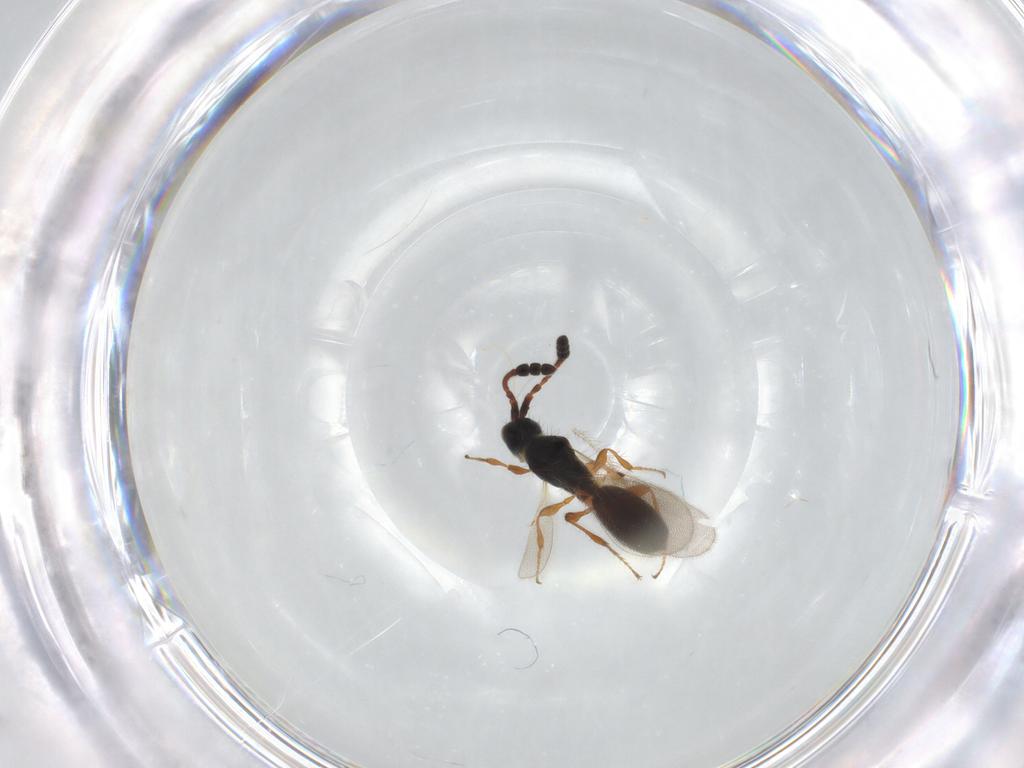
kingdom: Animalia
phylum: Arthropoda
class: Insecta
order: Hymenoptera
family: Diapriidae
